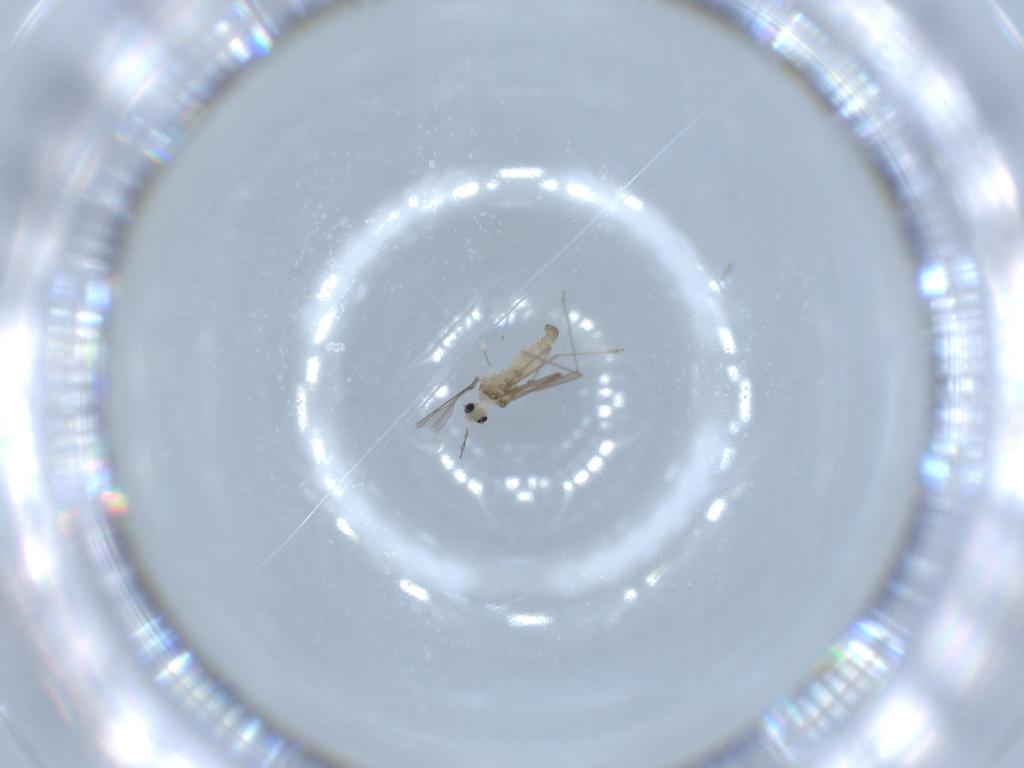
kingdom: Animalia
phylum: Arthropoda
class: Insecta
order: Diptera
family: Cecidomyiidae
